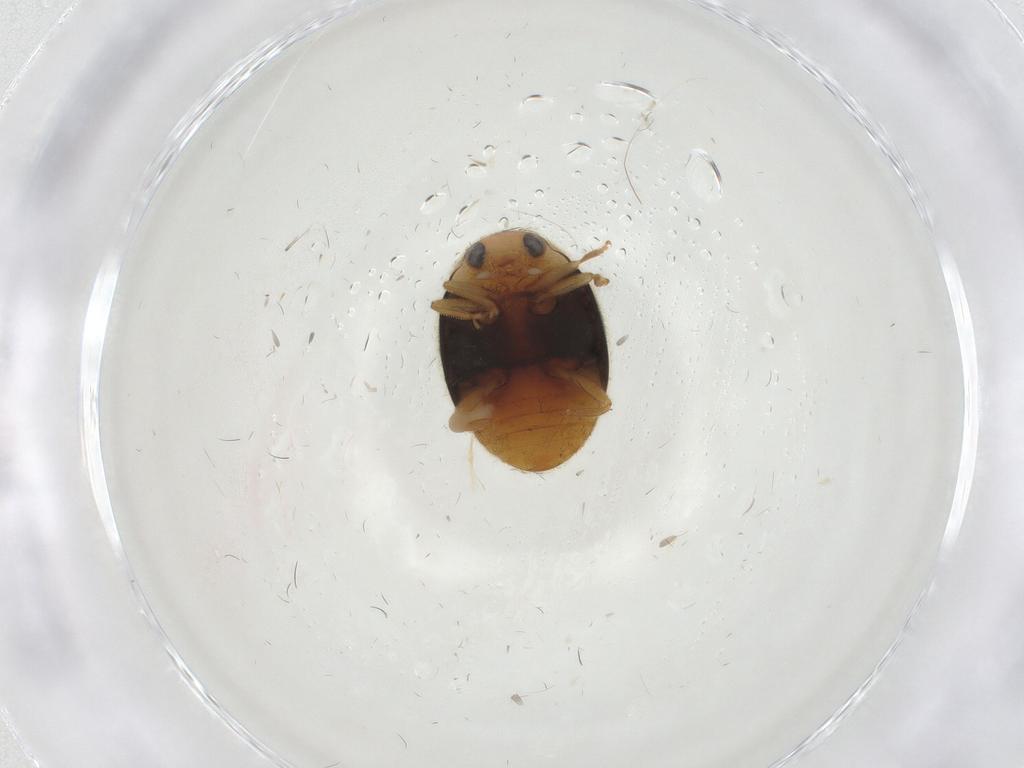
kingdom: Animalia
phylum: Arthropoda
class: Insecta
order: Coleoptera
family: Coccinellidae
